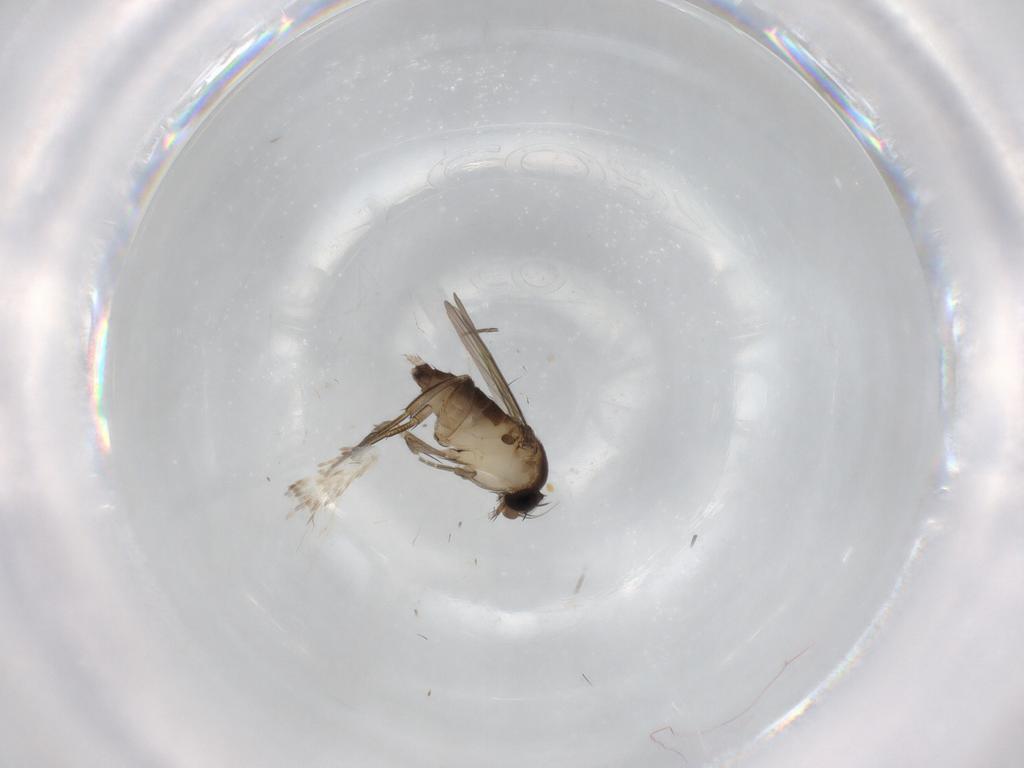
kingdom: Animalia
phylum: Arthropoda
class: Insecta
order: Diptera
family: Phoridae
